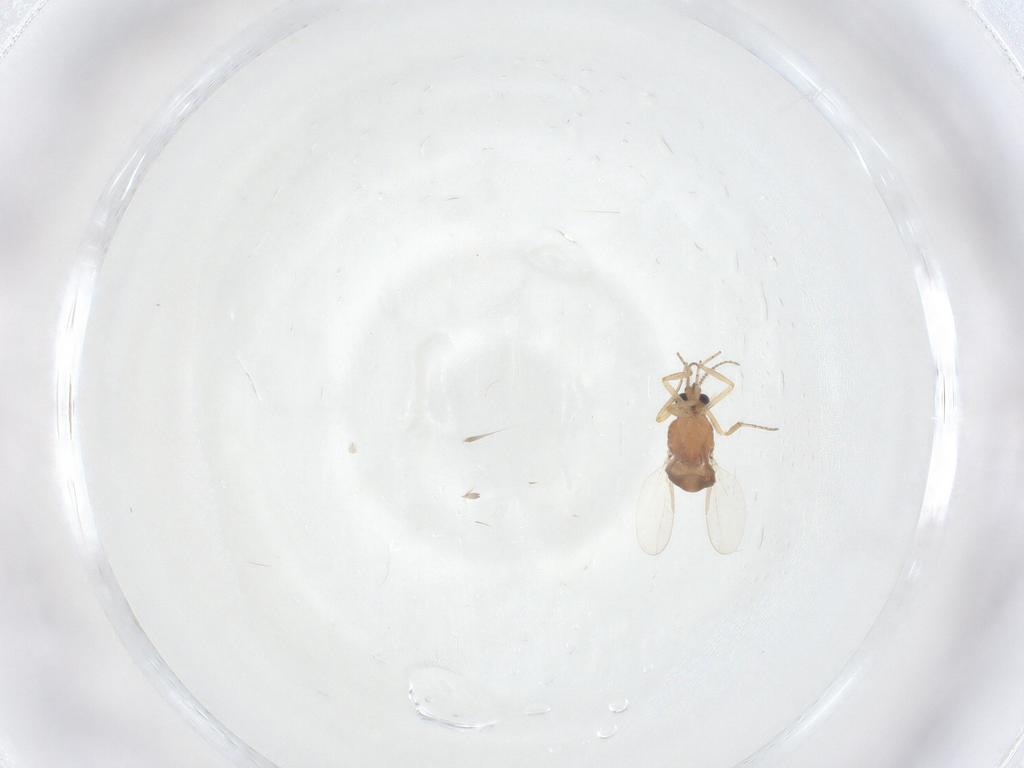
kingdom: Animalia
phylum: Arthropoda
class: Insecta
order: Diptera
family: Ceratopogonidae
